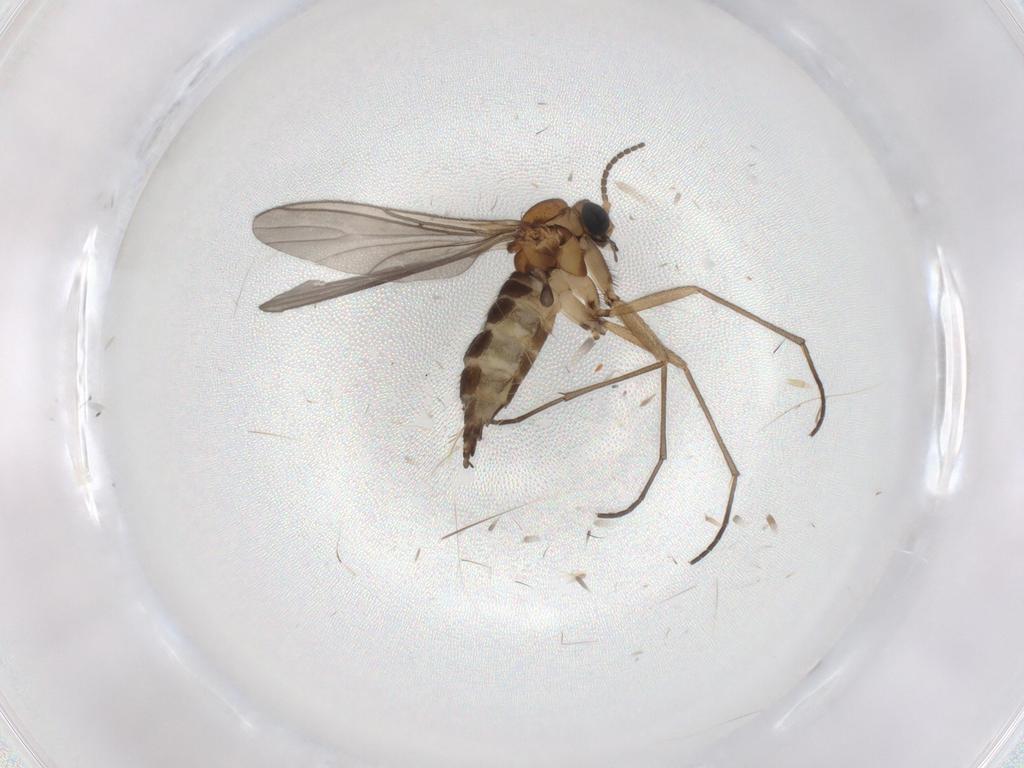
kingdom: Animalia
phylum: Arthropoda
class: Insecta
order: Diptera
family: Sciaridae
